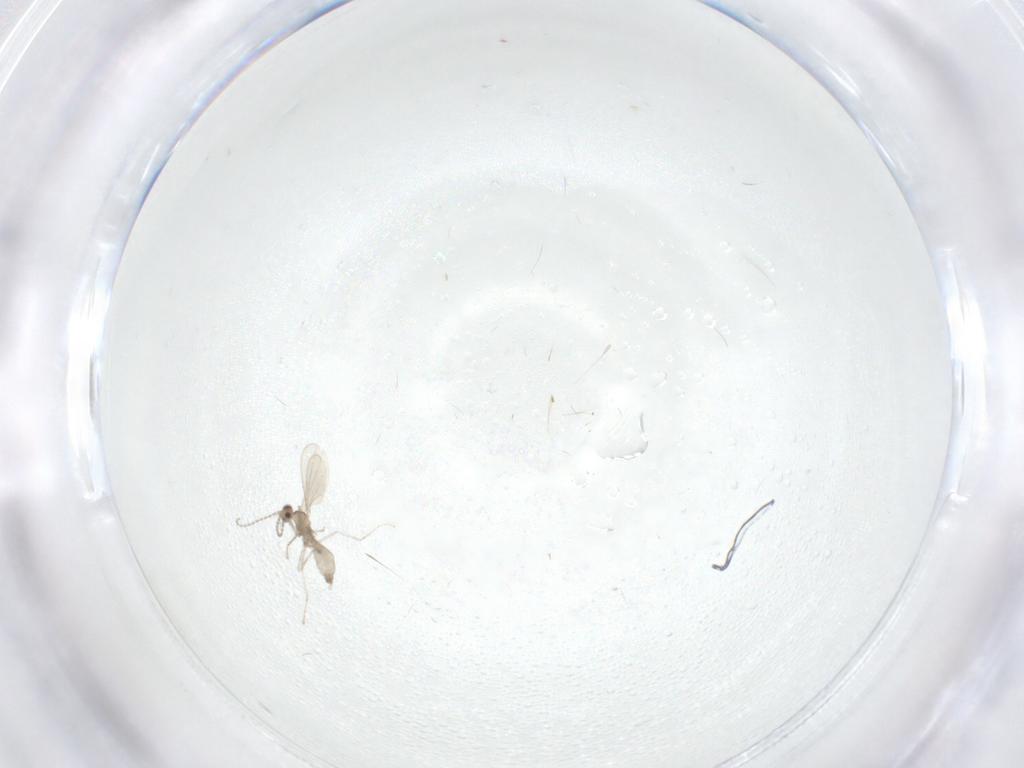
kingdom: Animalia
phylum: Arthropoda
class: Insecta
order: Diptera
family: Cecidomyiidae
